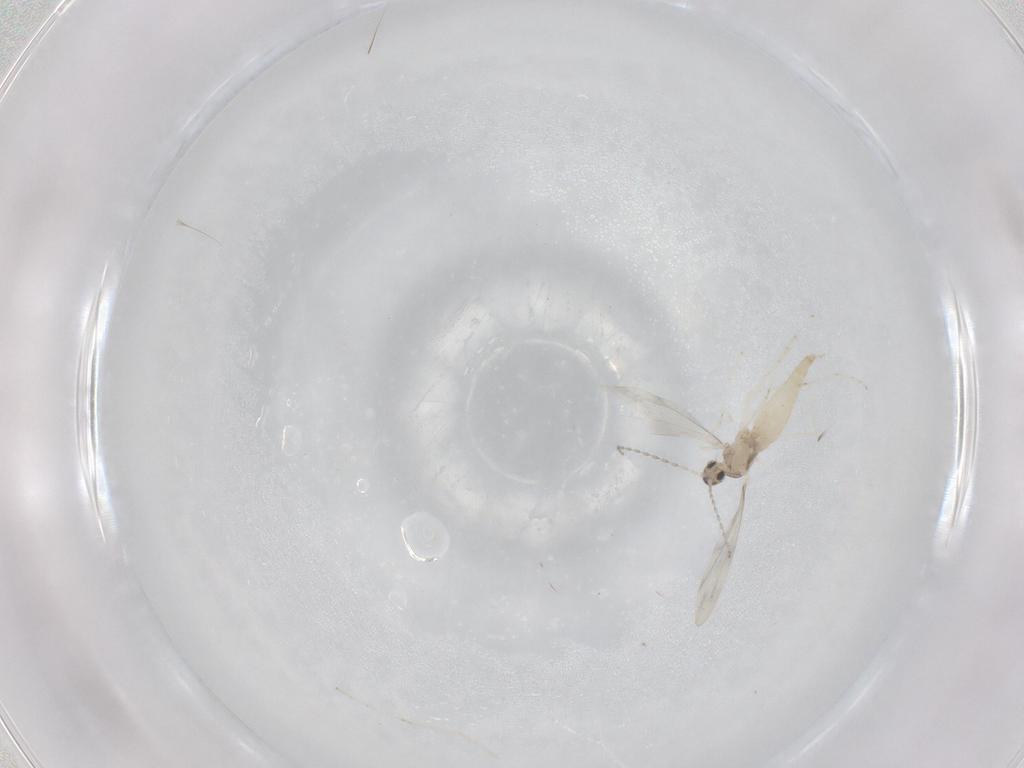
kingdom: Animalia
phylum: Arthropoda
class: Insecta
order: Diptera
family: Cecidomyiidae
